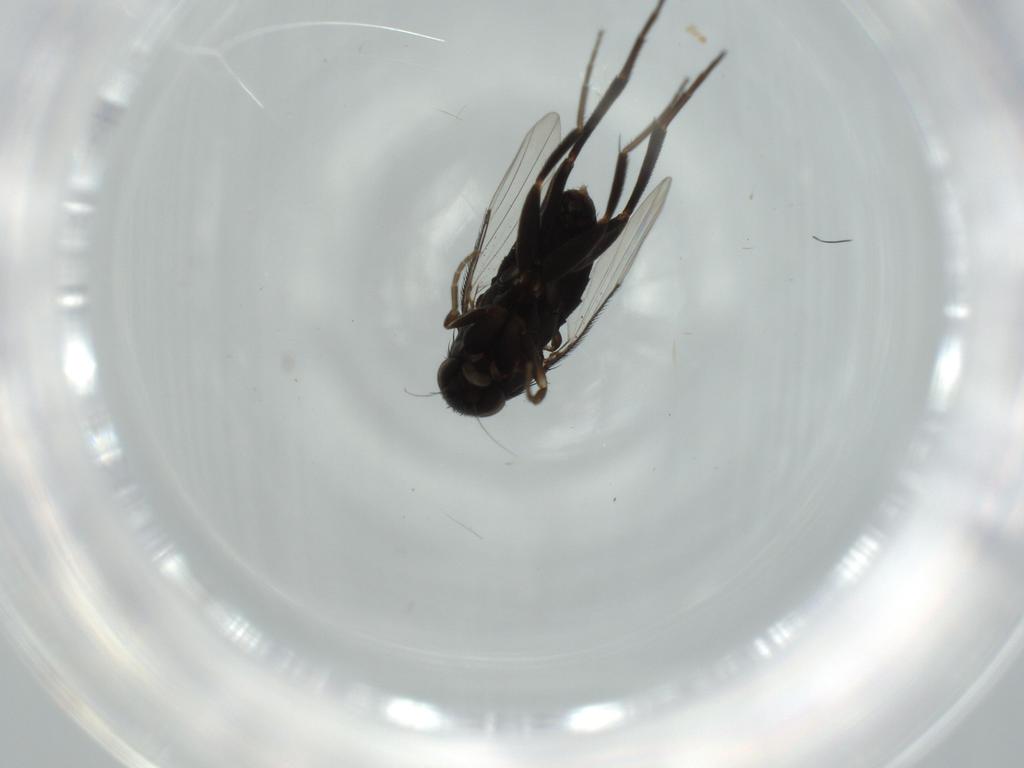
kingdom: Animalia
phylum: Arthropoda
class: Insecta
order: Diptera
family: Phoridae
